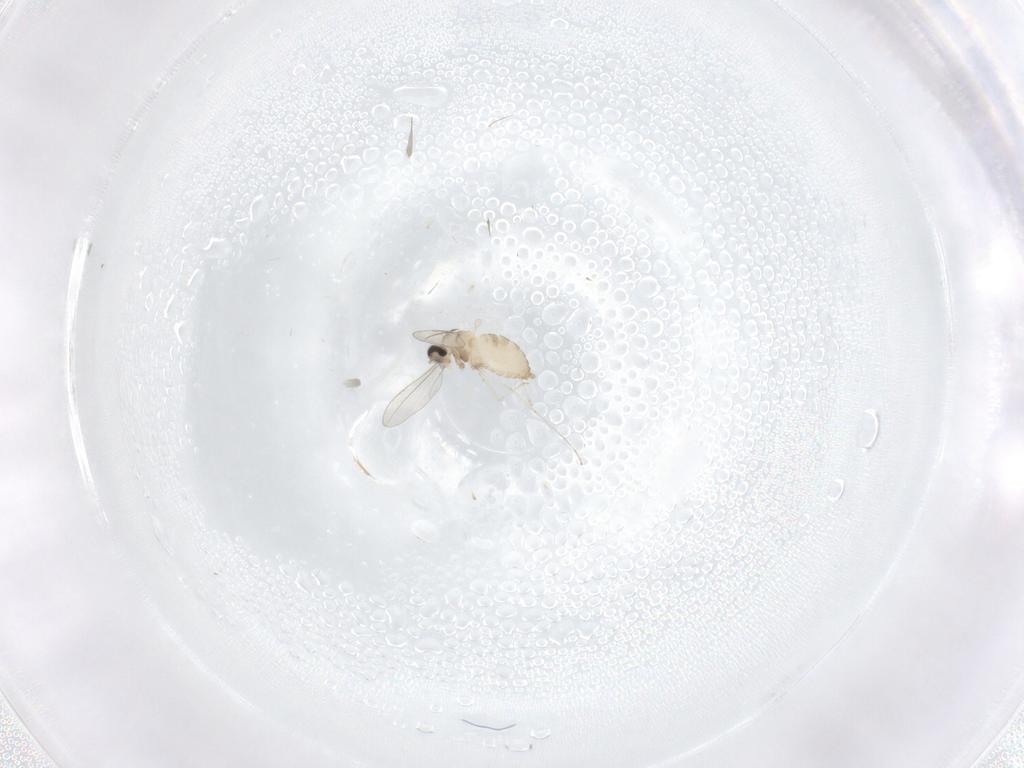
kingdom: Animalia
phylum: Arthropoda
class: Insecta
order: Diptera
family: Cecidomyiidae
